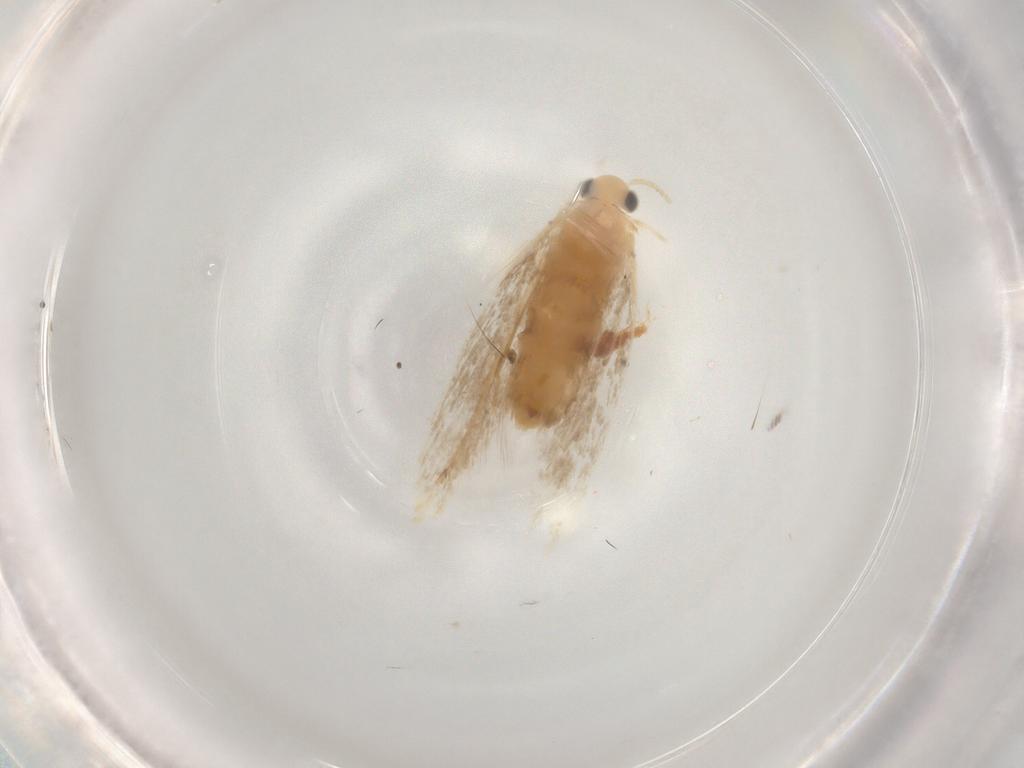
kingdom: Animalia
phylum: Arthropoda
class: Insecta
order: Lepidoptera
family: Dryadaulidae
